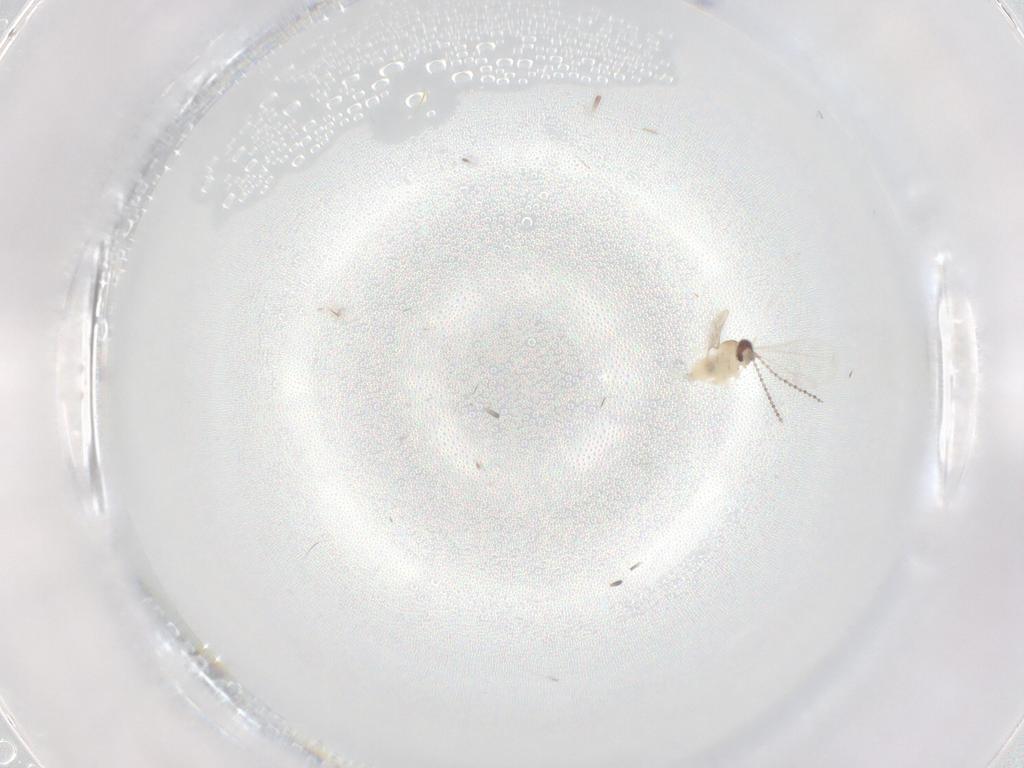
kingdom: Animalia
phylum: Arthropoda
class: Insecta
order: Diptera
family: Cecidomyiidae
